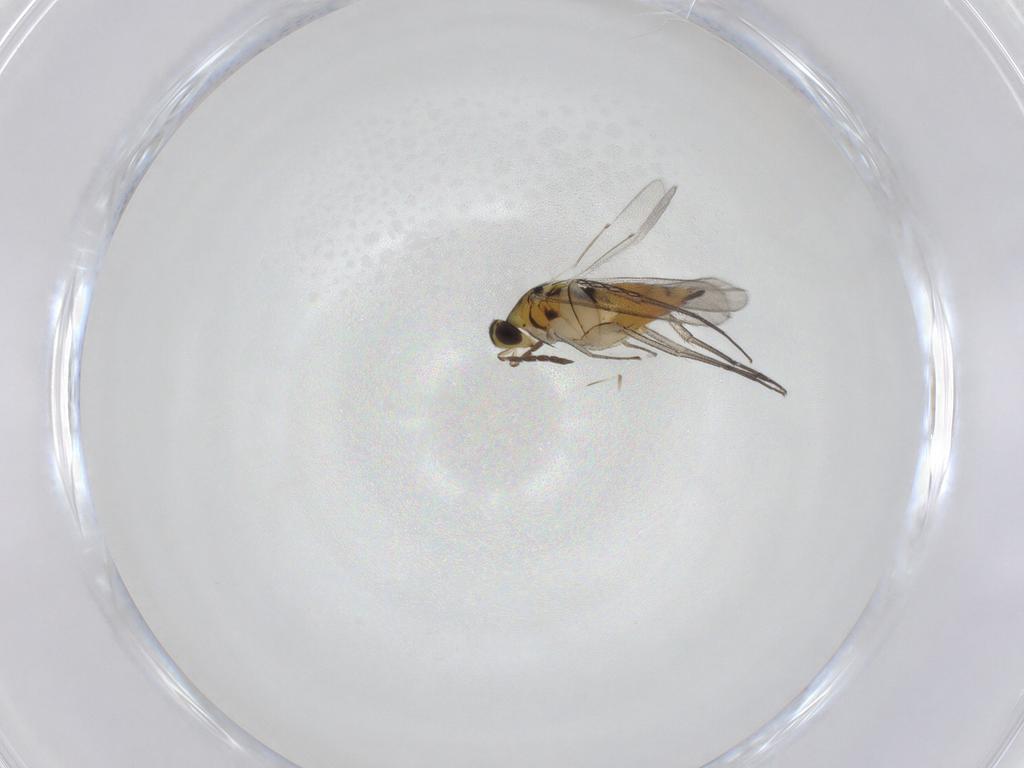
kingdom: Animalia
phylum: Arthropoda
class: Insecta
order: Hymenoptera
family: Eulophidae
